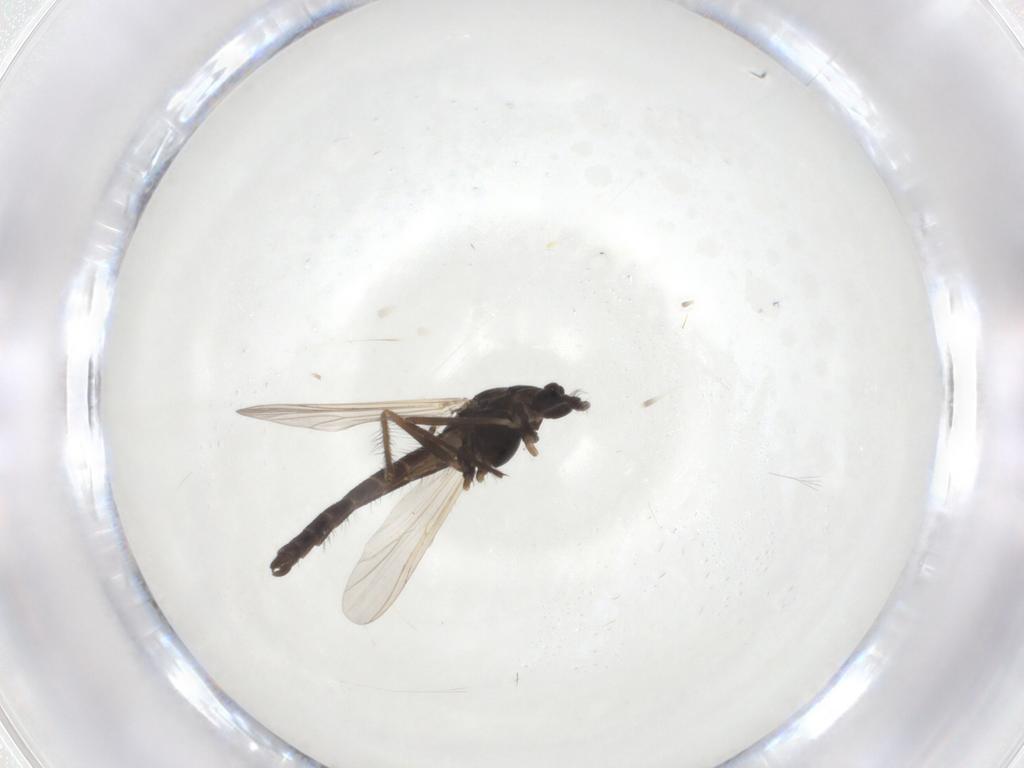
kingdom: Animalia
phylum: Arthropoda
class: Insecta
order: Diptera
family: Chironomidae
